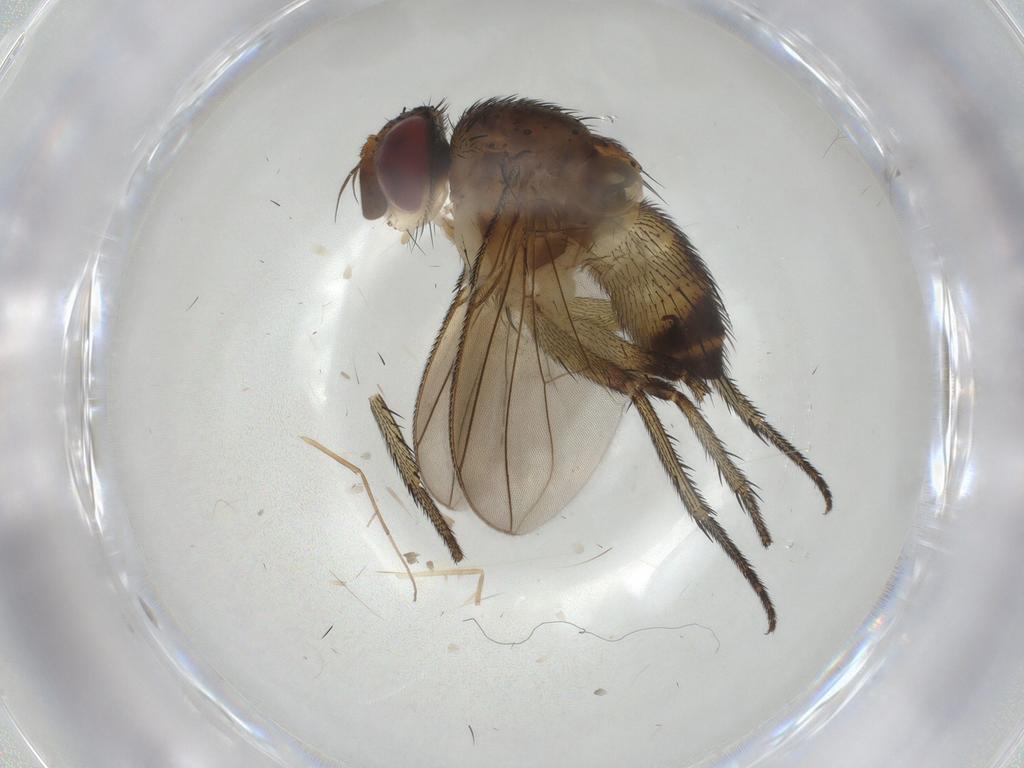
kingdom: Animalia
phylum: Arthropoda
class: Insecta
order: Diptera
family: Tachinidae
